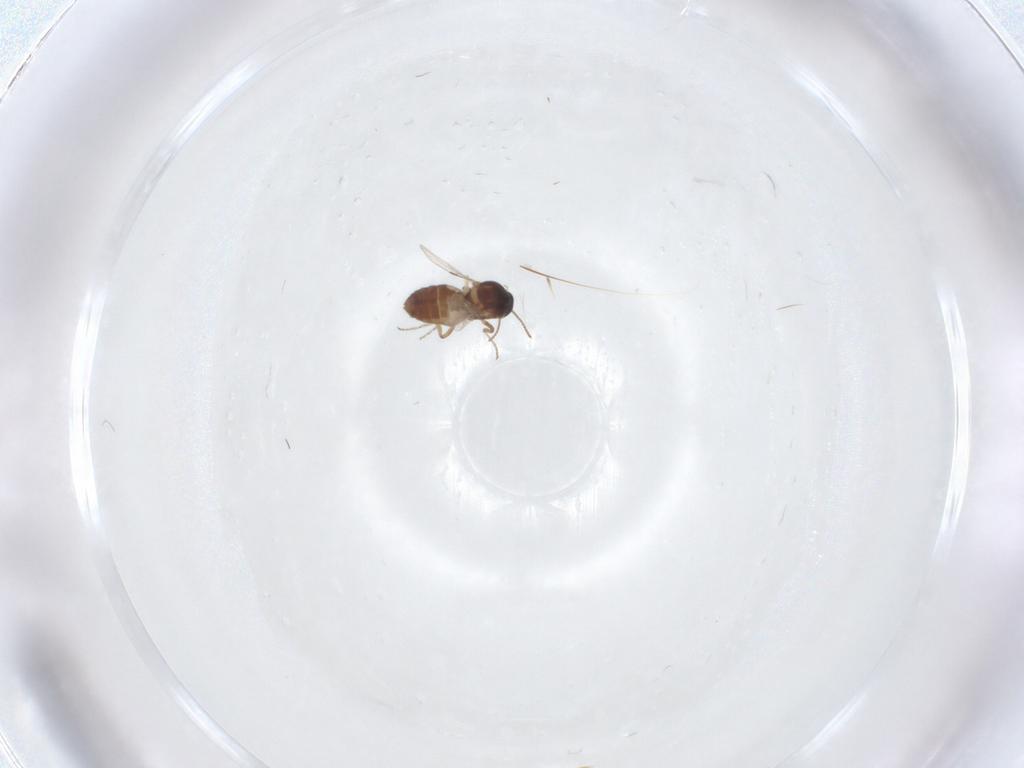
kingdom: Animalia
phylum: Arthropoda
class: Insecta
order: Diptera
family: Ceratopogonidae
